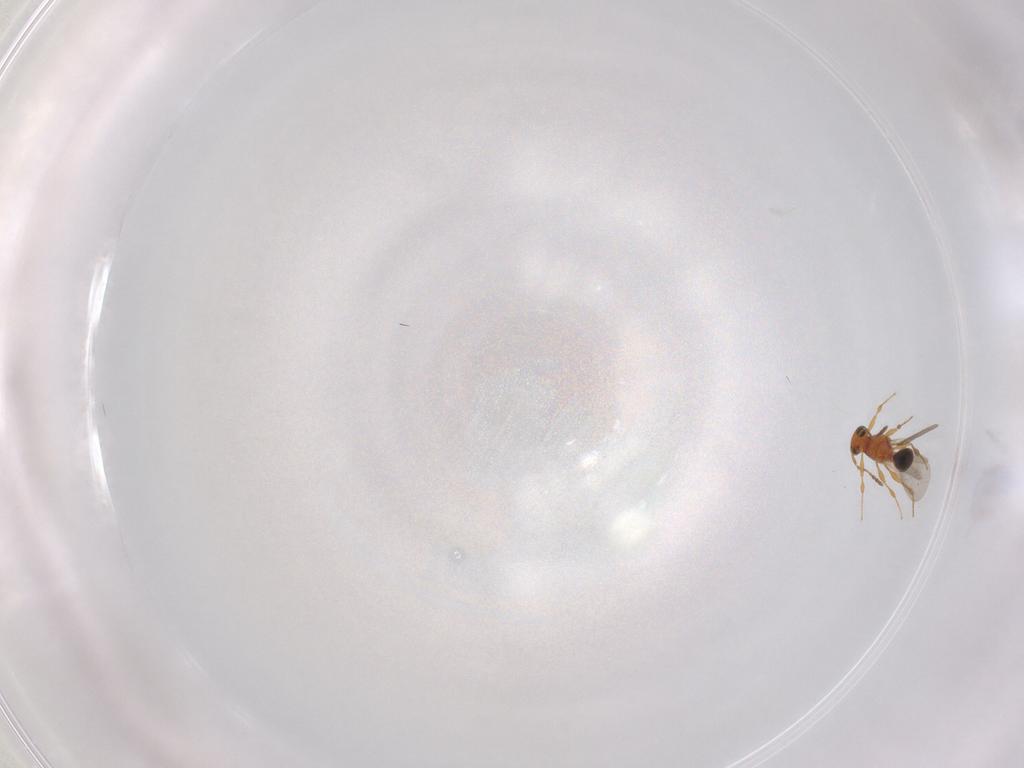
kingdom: Animalia
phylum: Arthropoda
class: Insecta
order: Hymenoptera
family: Platygastridae
